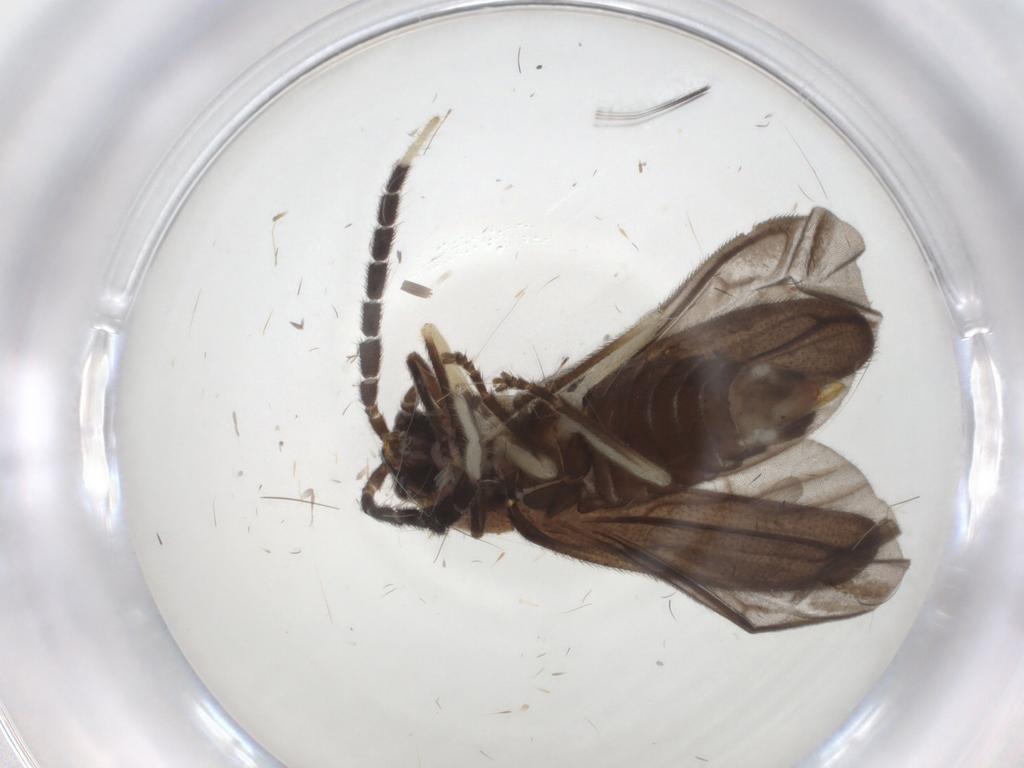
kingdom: Animalia
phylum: Arthropoda
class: Insecta
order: Coleoptera
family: Lampyridae
